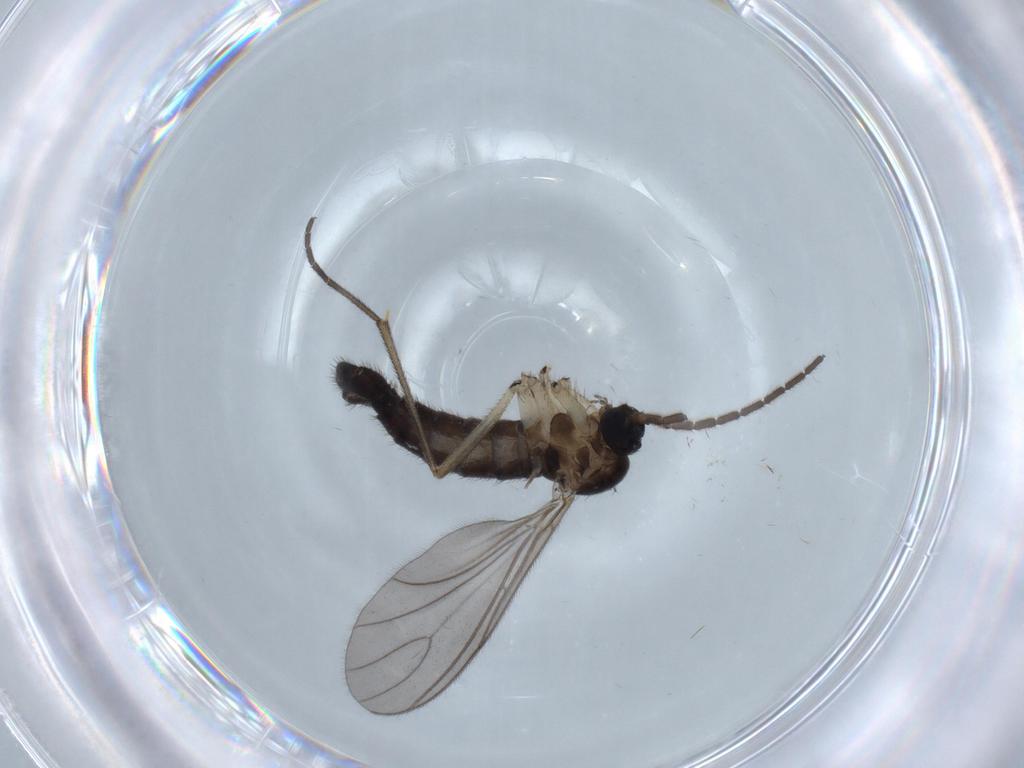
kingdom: Animalia
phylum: Arthropoda
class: Insecta
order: Diptera
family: Sciaridae
